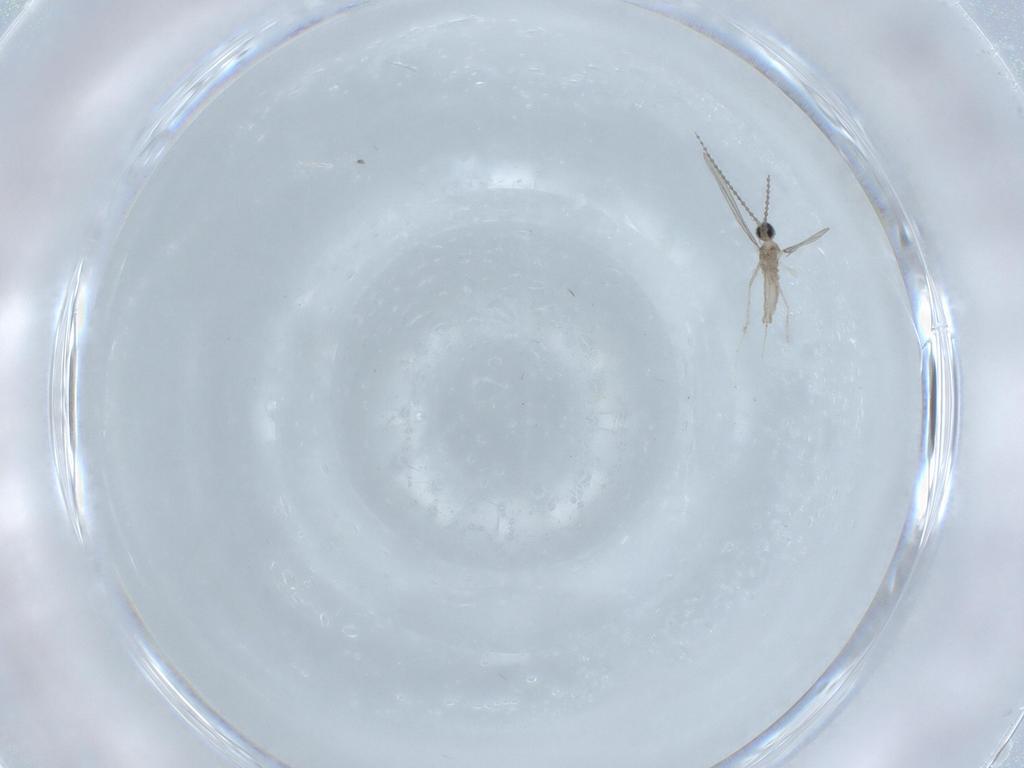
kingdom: Animalia
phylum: Arthropoda
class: Insecta
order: Diptera
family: Cecidomyiidae
